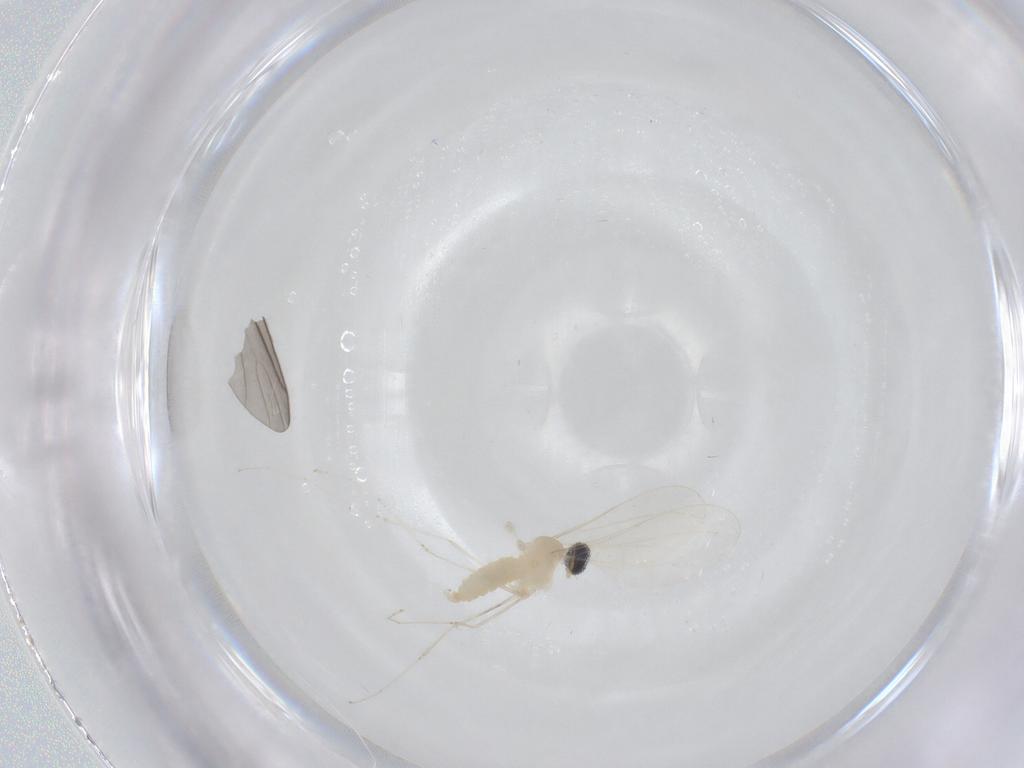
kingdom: Animalia
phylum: Arthropoda
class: Insecta
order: Diptera
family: Cecidomyiidae
